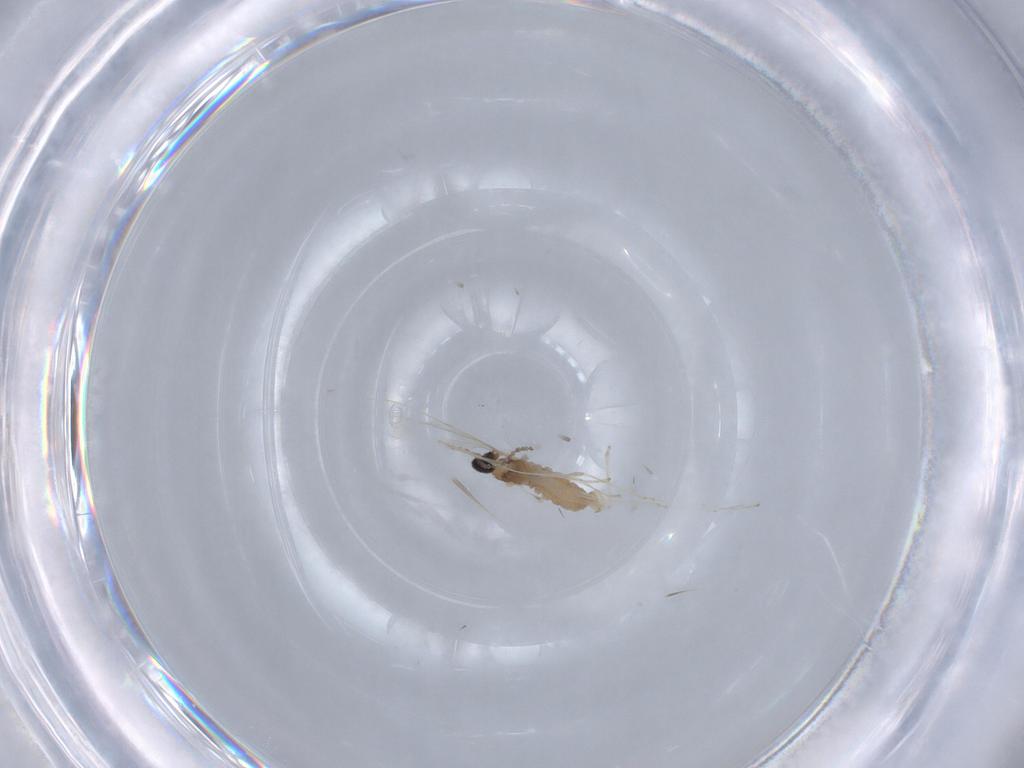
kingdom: Animalia
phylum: Arthropoda
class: Insecta
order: Diptera
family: Cecidomyiidae
